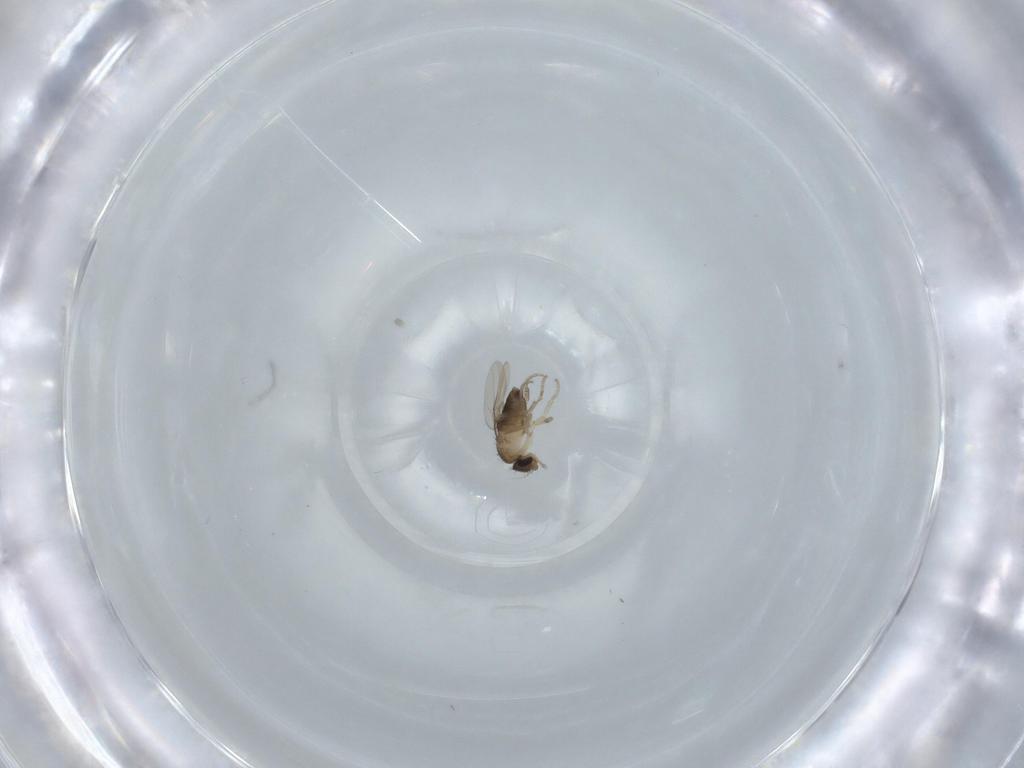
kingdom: Animalia
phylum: Arthropoda
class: Insecta
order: Diptera
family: Phoridae
